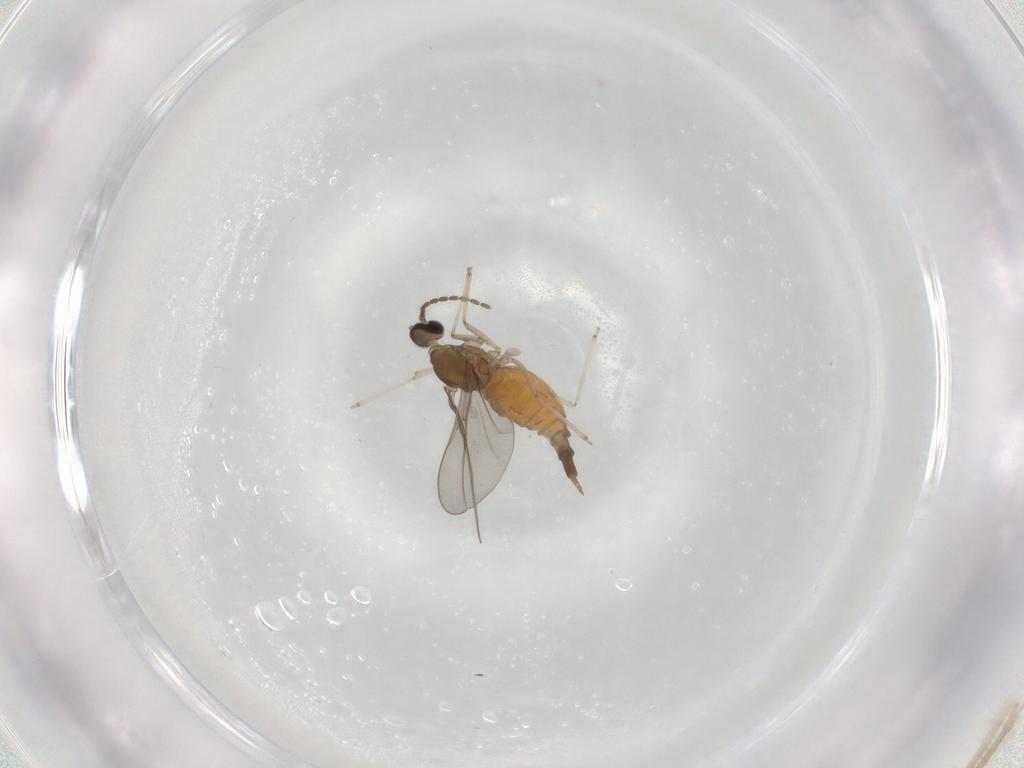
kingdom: Animalia
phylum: Arthropoda
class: Insecta
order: Diptera
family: Cecidomyiidae
